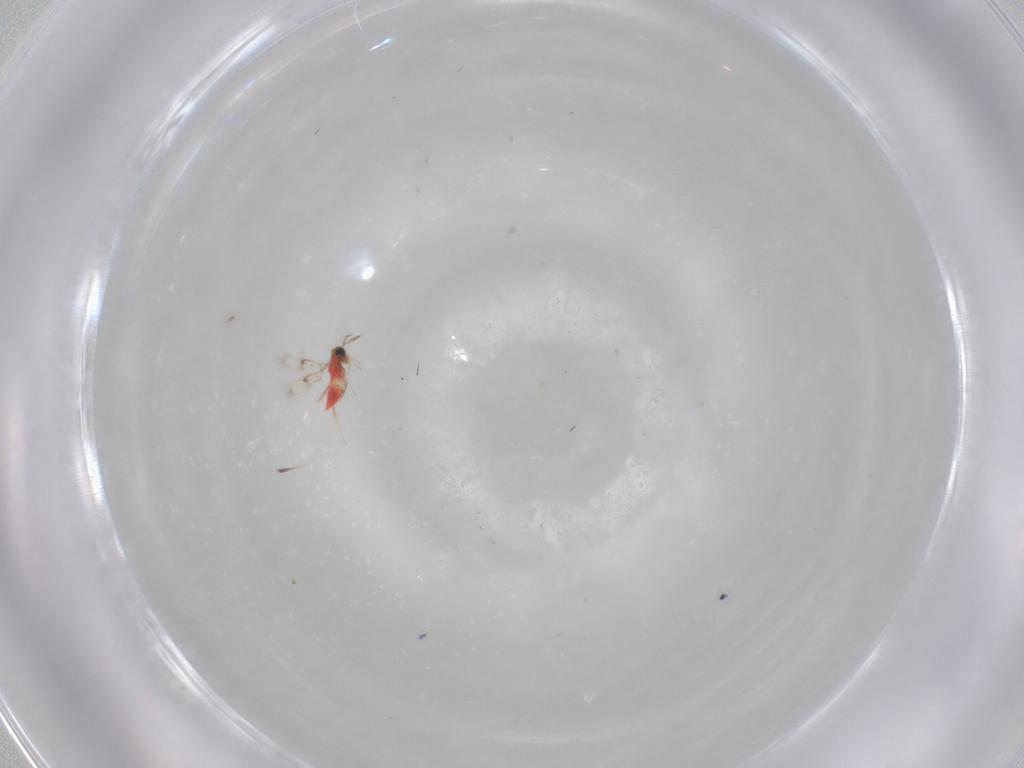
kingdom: Animalia
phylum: Arthropoda
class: Insecta
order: Hymenoptera
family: Trichogrammatidae
